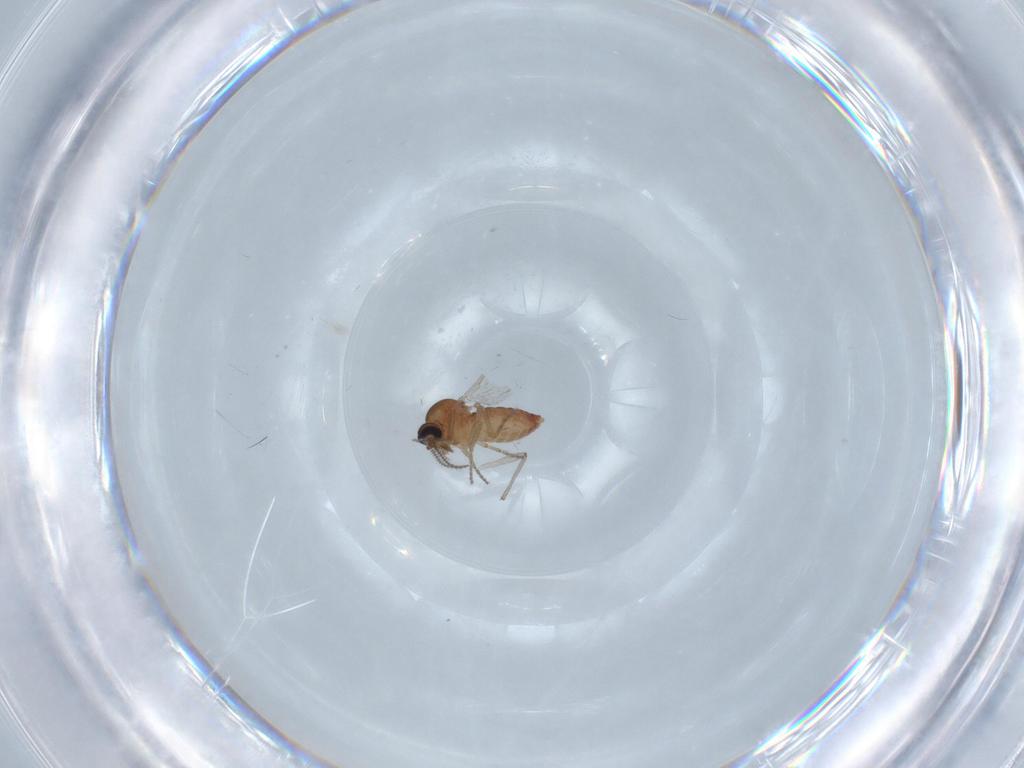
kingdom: Animalia
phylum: Arthropoda
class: Insecta
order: Diptera
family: Ceratopogonidae
